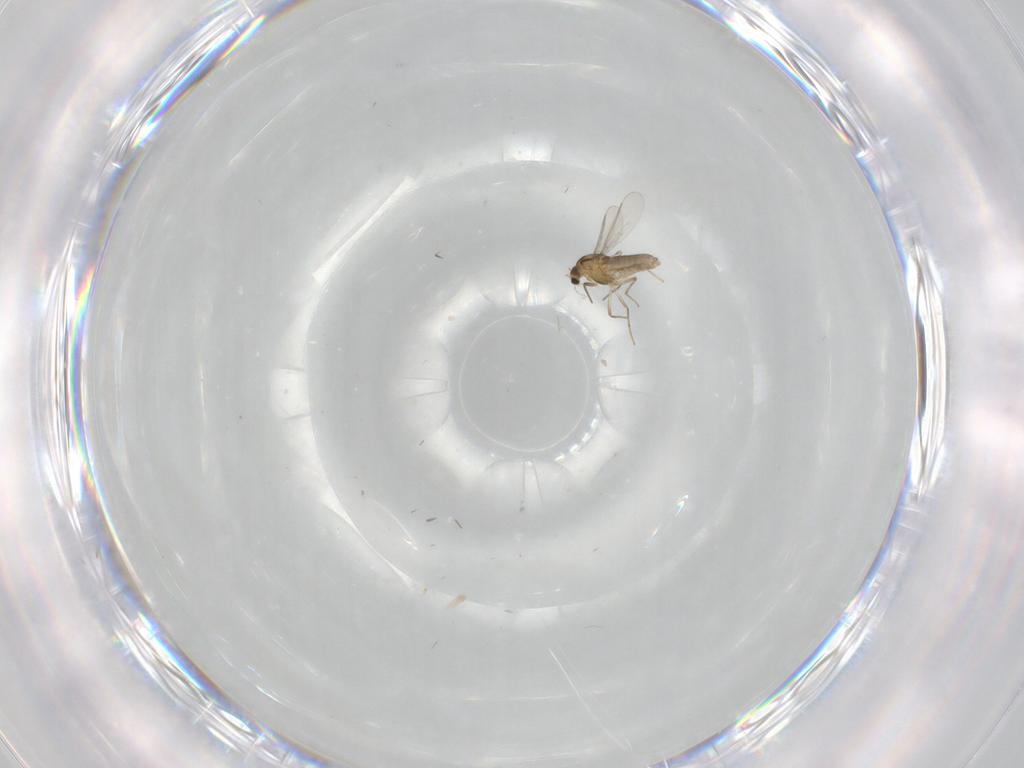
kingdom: Animalia
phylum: Arthropoda
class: Insecta
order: Diptera
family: Chironomidae
